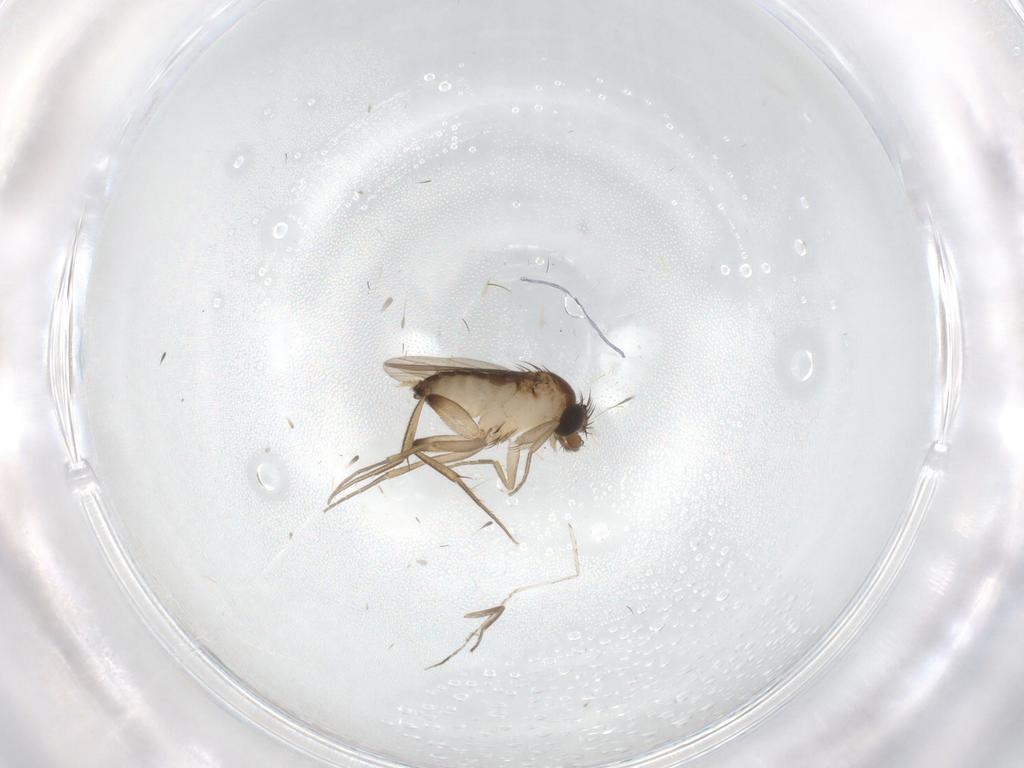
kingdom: Animalia
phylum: Arthropoda
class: Insecta
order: Diptera
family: Phoridae
